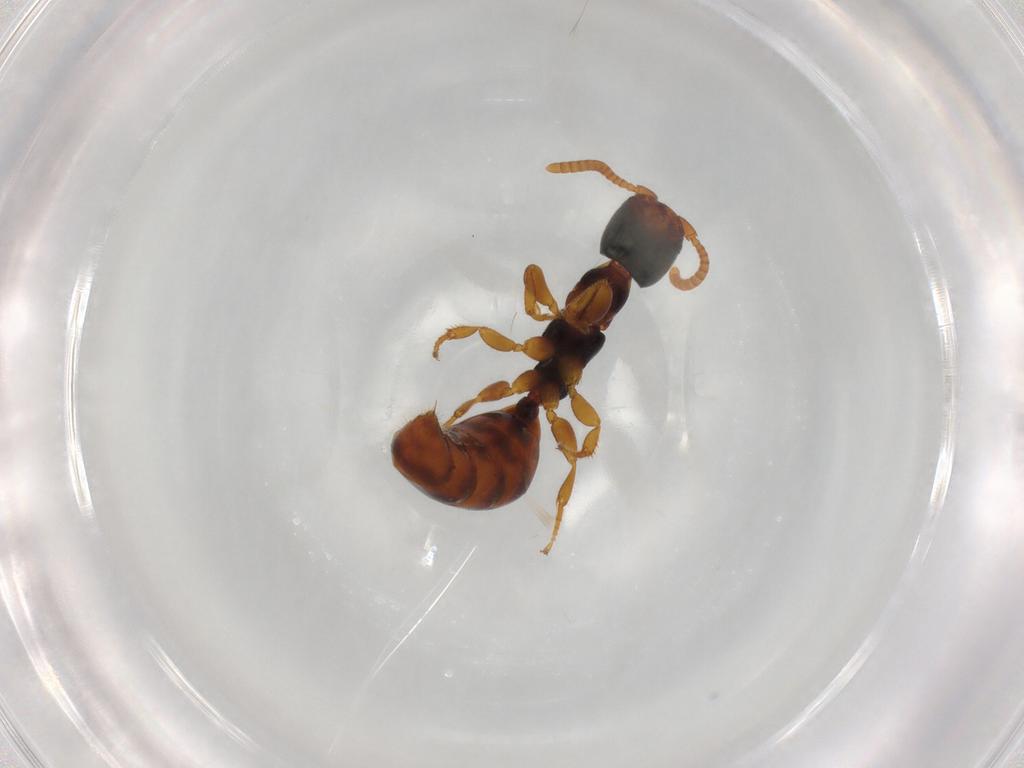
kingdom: Animalia
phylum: Arthropoda
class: Insecta
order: Hymenoptera
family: Bethylidae
